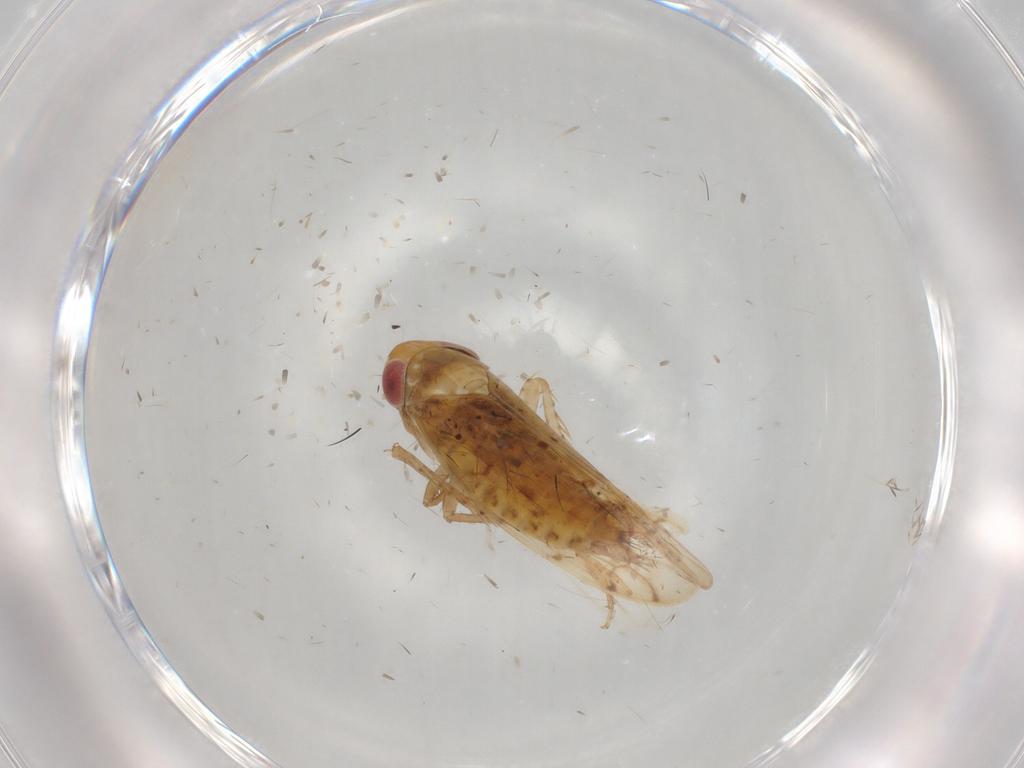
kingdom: Animalia
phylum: Arthropoda
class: Insecta
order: Hemiptera
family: Cicadellidae
